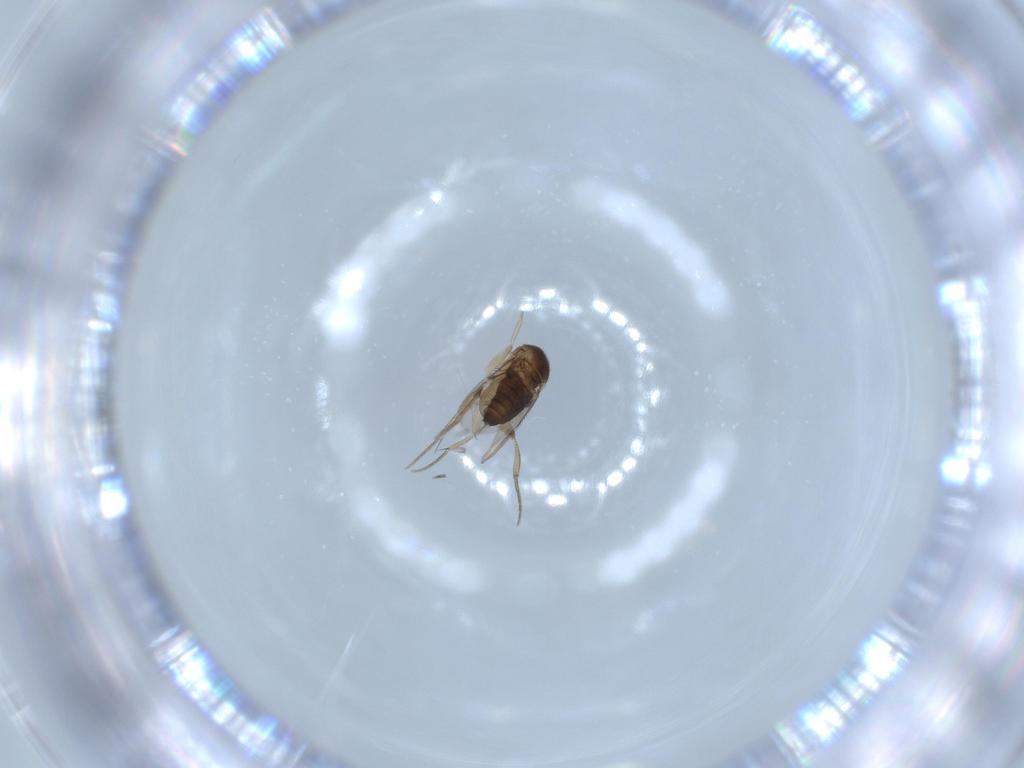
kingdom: Animalia
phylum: Arthropoda
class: Insecta
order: Diptera
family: Phoridae
